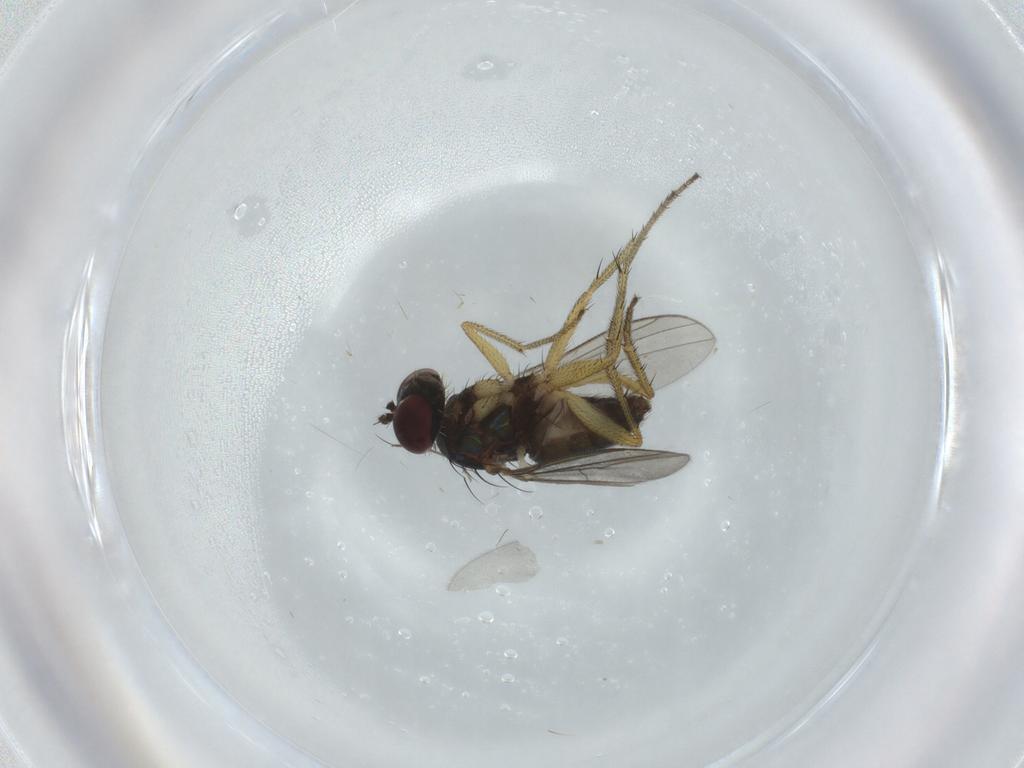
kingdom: Animalia
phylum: Arthropoda
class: Insecta
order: Diptera
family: Dolichopodidae
